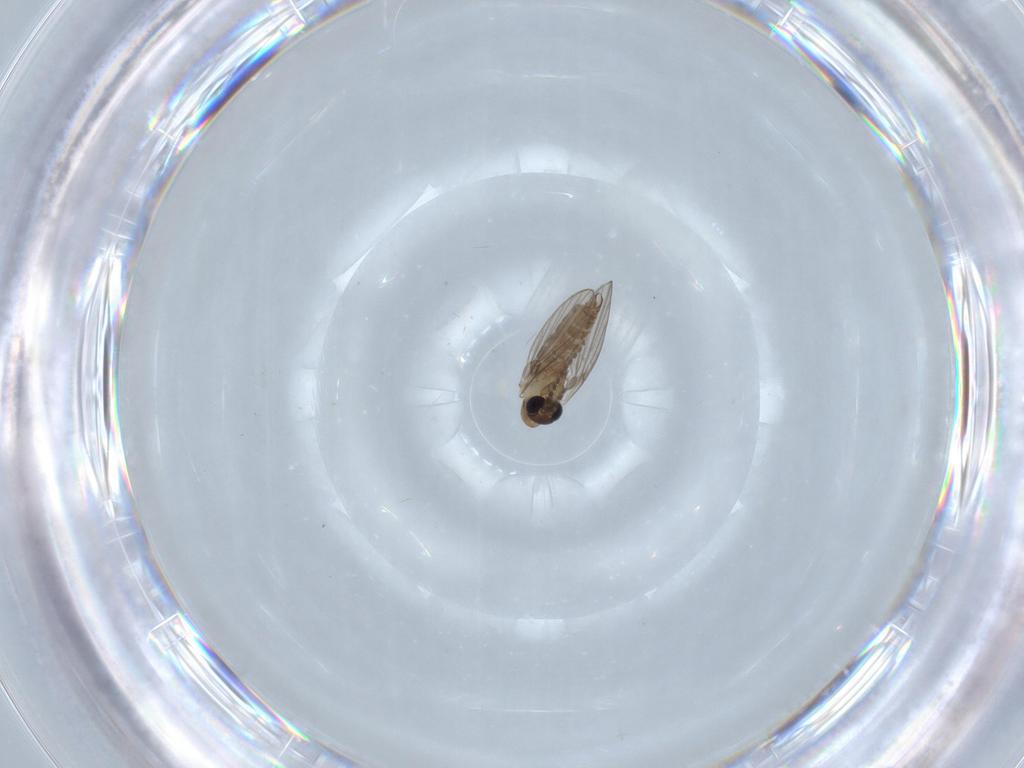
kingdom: Animalia
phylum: Arthropoda
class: Insecta
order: Diptera
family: Psychodidae
